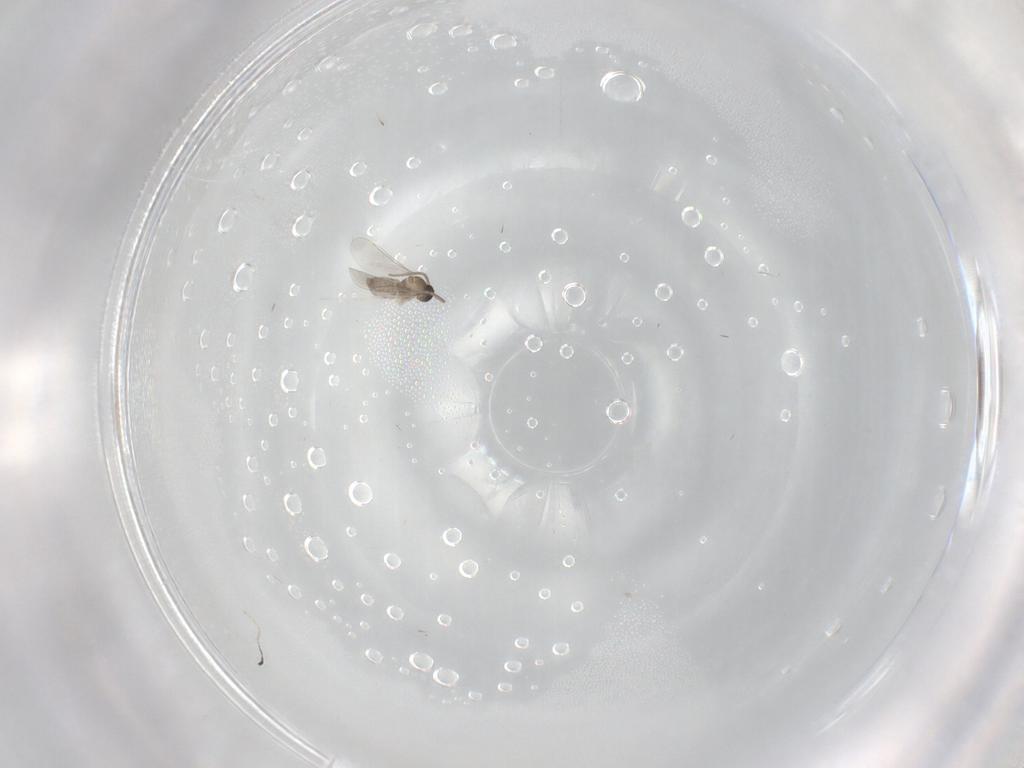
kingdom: Animalia
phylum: Arthropoda
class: Insecta
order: Diptera
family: Cecidomyiidae
